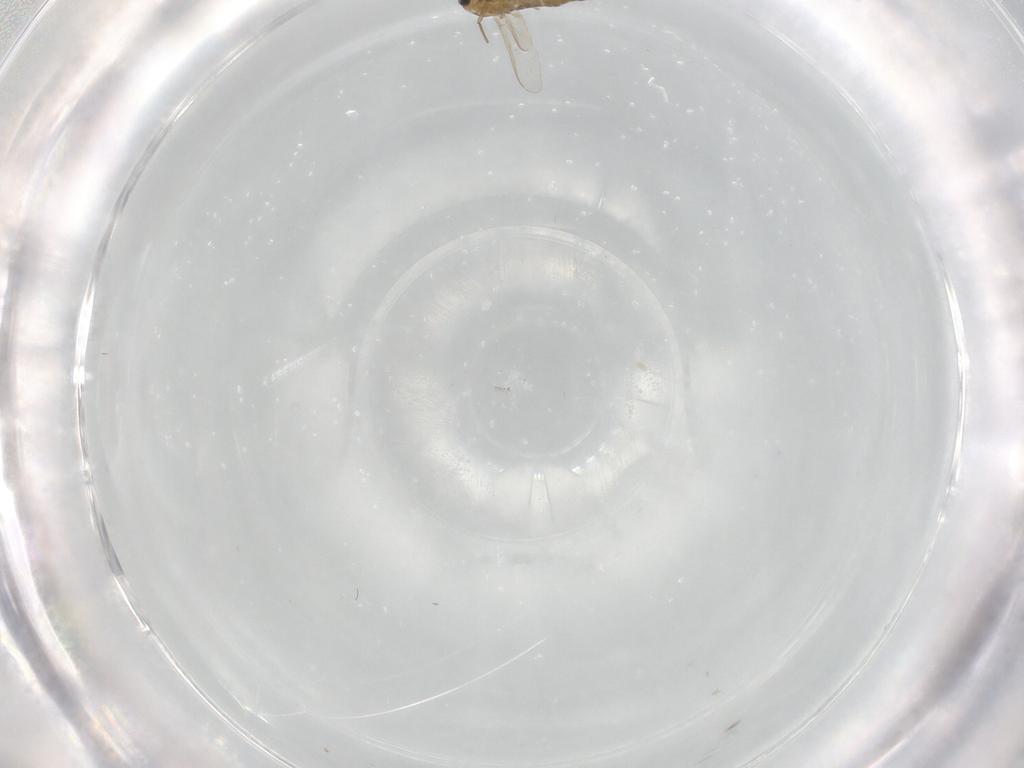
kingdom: Animalia
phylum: Arthropoda
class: Insecta
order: Diptera
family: Chironomidae
